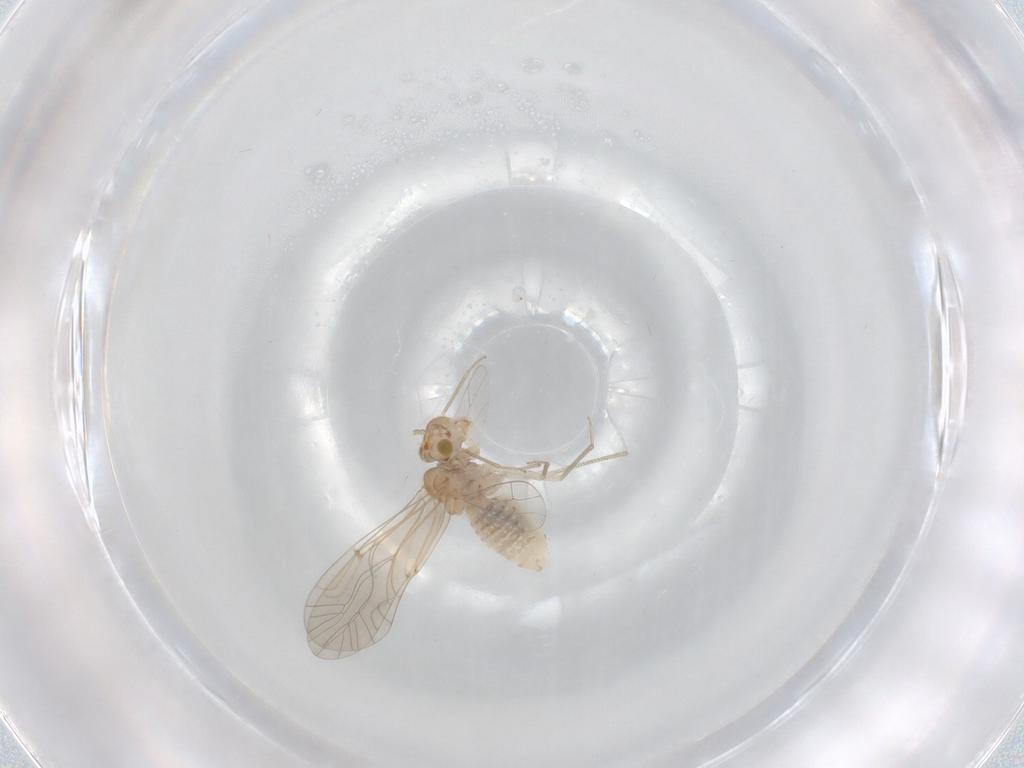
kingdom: Animalia
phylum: Arthropoda
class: Insecta
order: Psocodea
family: Lachesillidae
